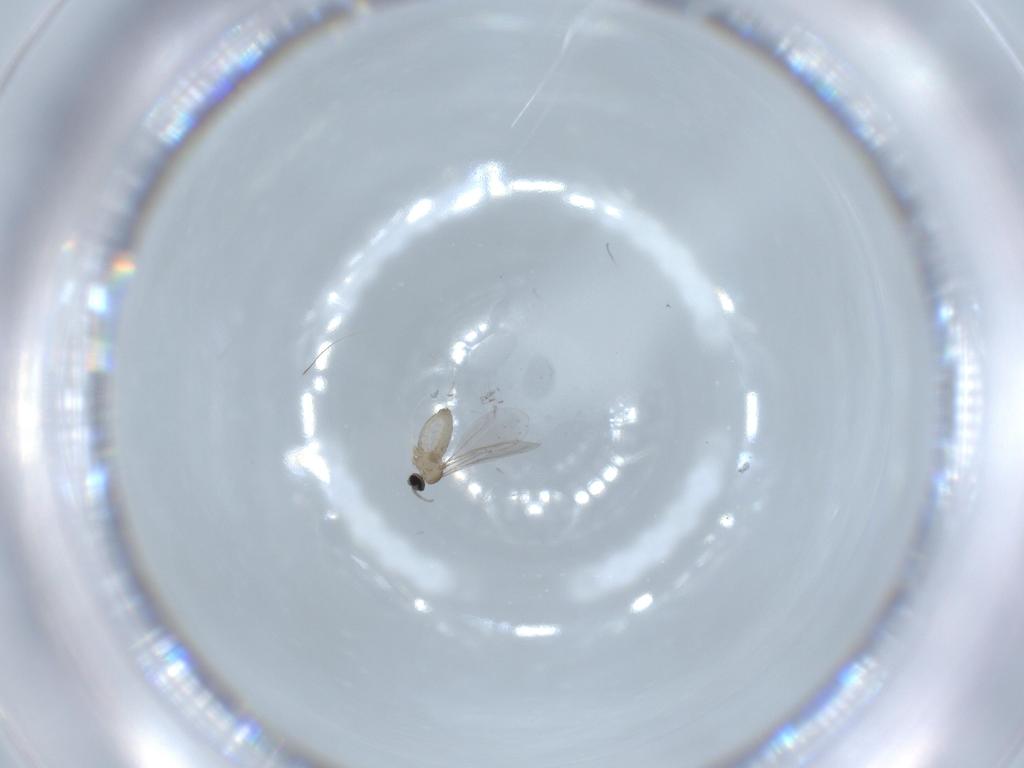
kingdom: Animalia
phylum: Arthropoda
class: Insecta
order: Diptera
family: Cecidomyiidae
